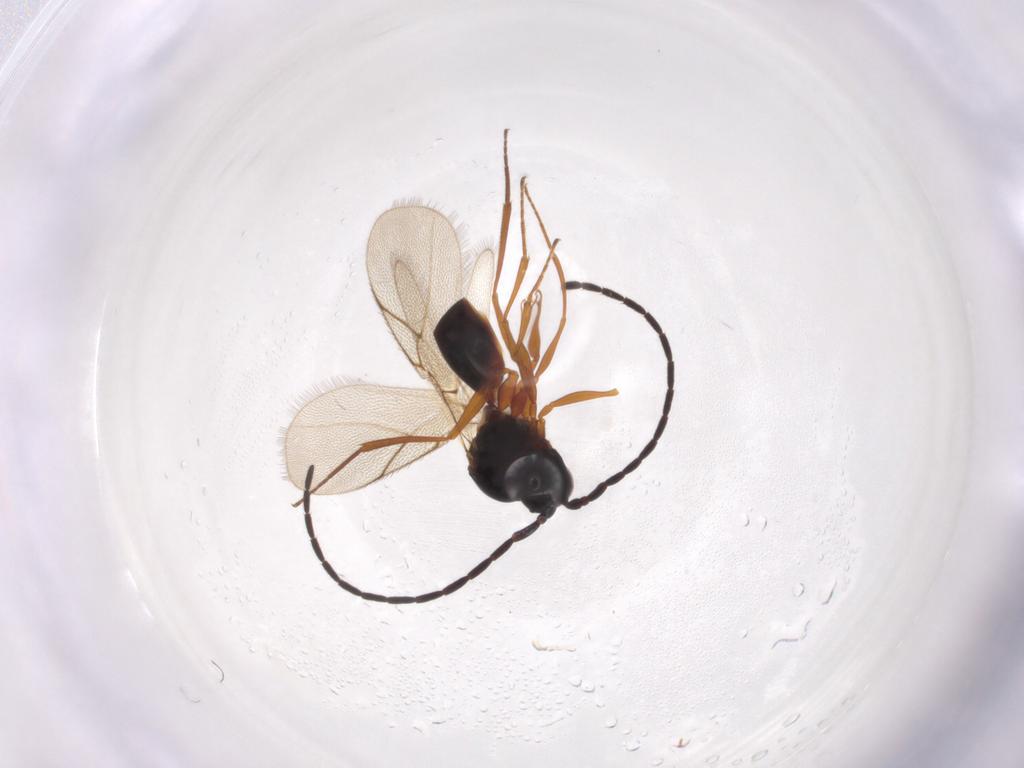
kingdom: Animalia
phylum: Arthropoda
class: Insecta
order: Hymenoptera
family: Figitidae
